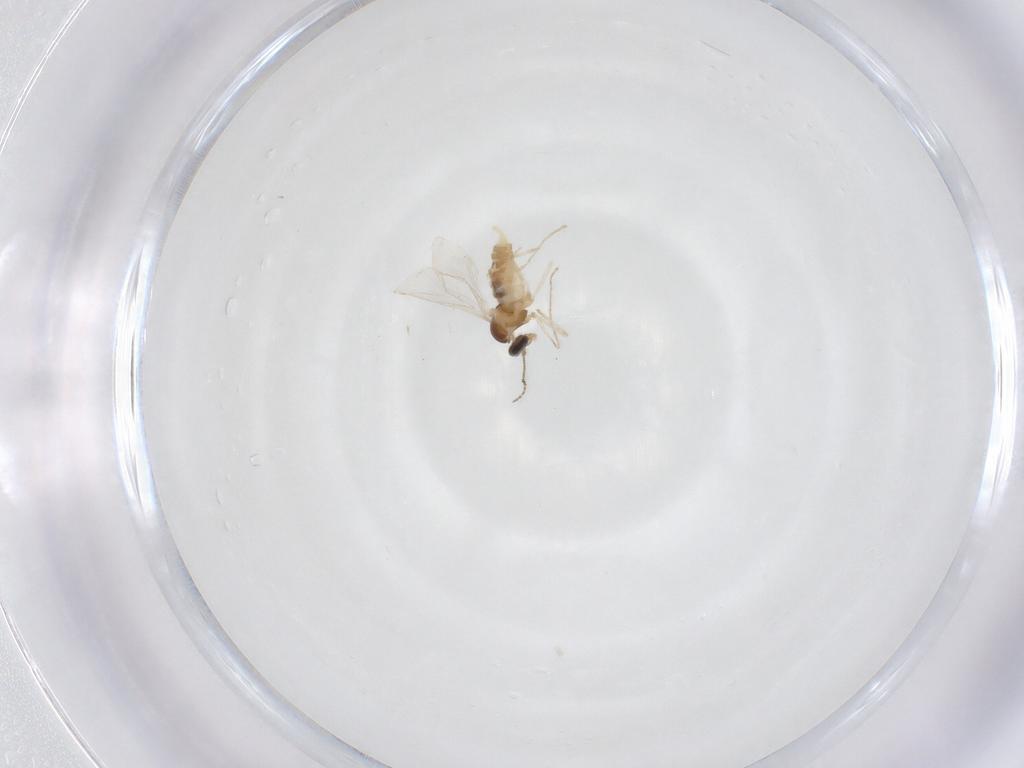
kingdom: Animalia
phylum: Arthropoda
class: Insecta
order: Diptera
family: Cecidomyiidae
